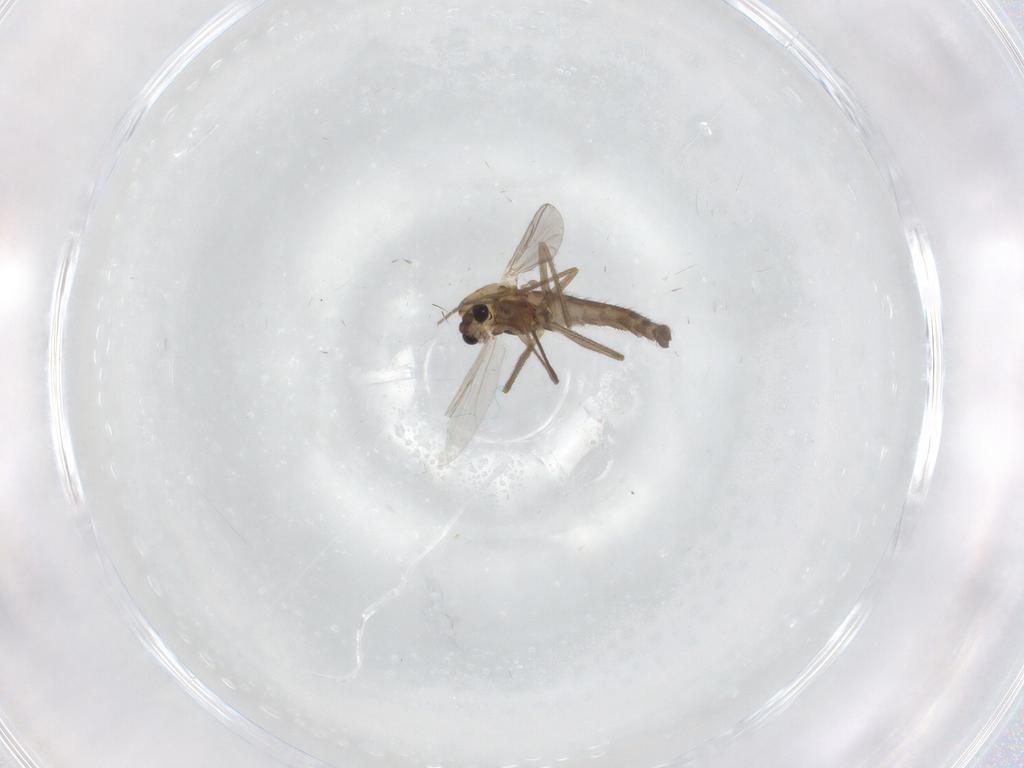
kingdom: Animalia
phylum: Arthropoda
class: Insecta
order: Diptera
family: Chironomidae
